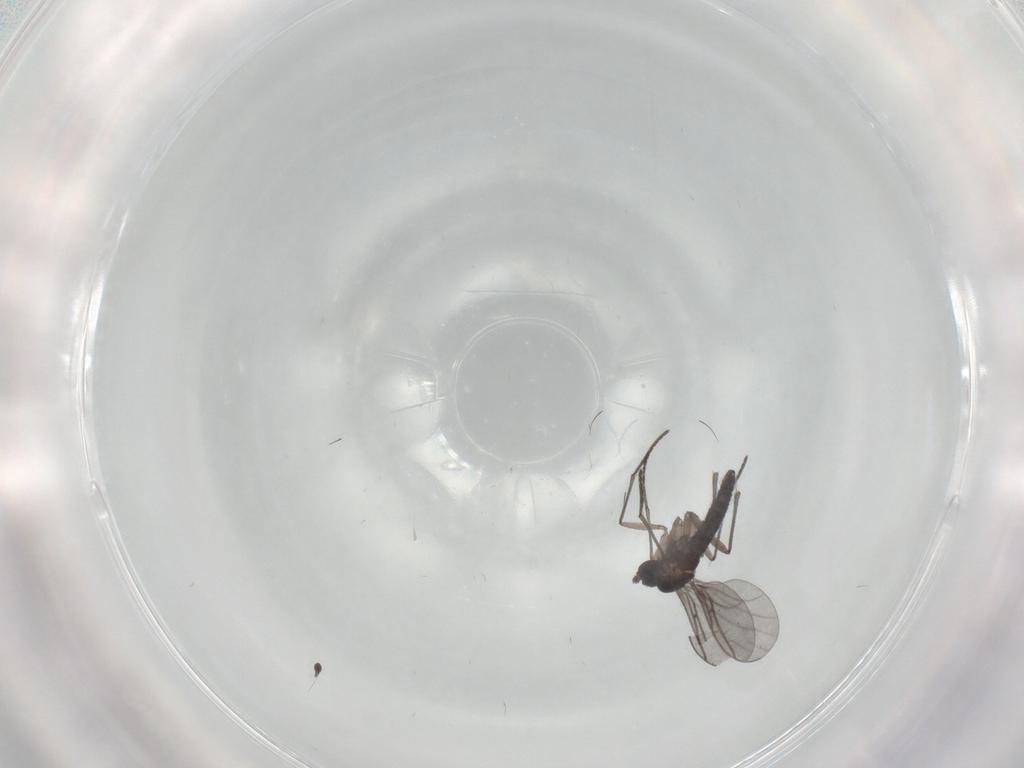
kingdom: Animalia
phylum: Arthropoda
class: Insecta
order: Diptera
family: Sciaridae
